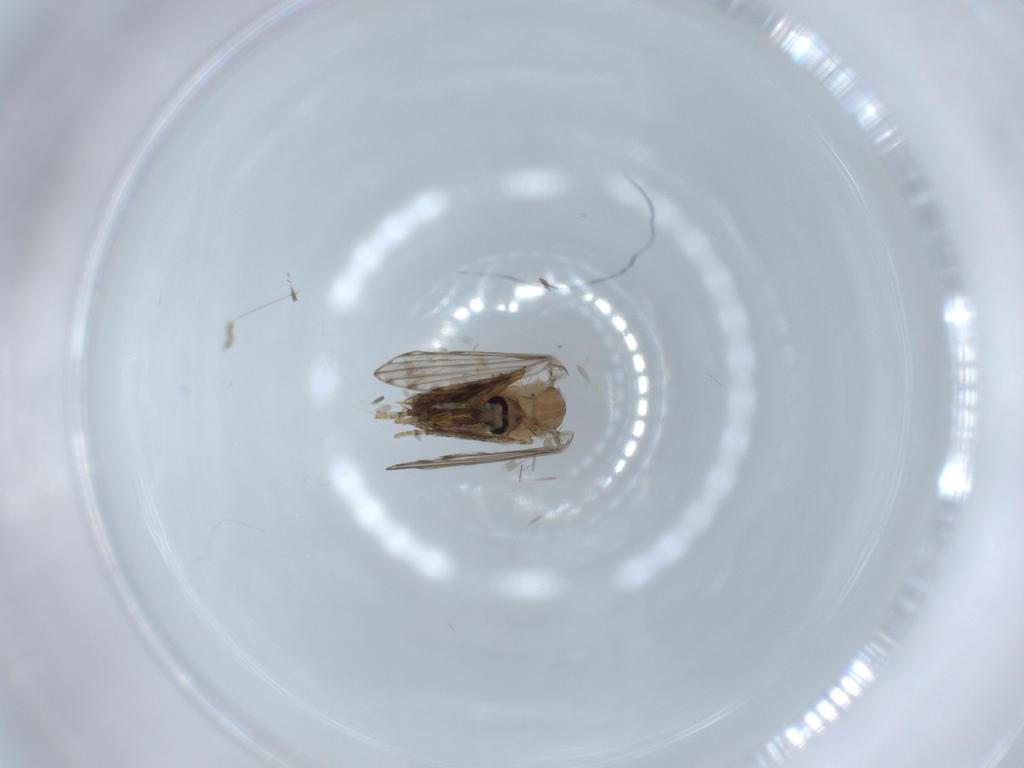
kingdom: Animalia
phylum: Arthropoda
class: Insecta
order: Diptera
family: Psychodidae
